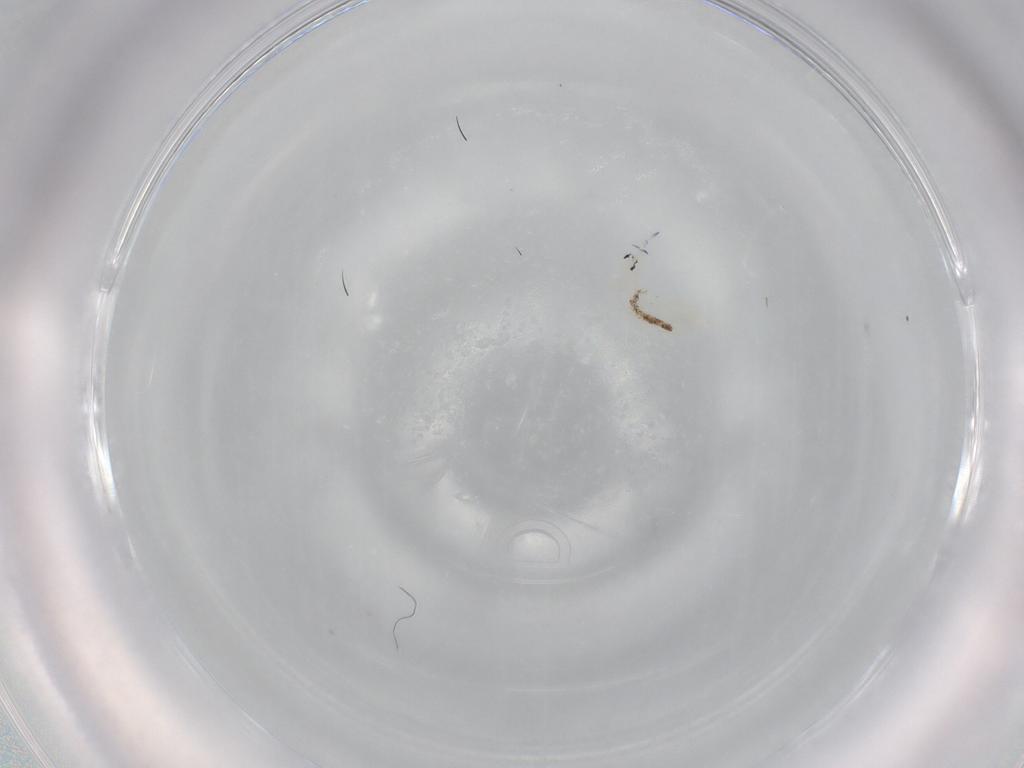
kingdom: Animalia
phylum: Arthropoda
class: Collembola
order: Entomobryomorpha
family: Entomobryidae
